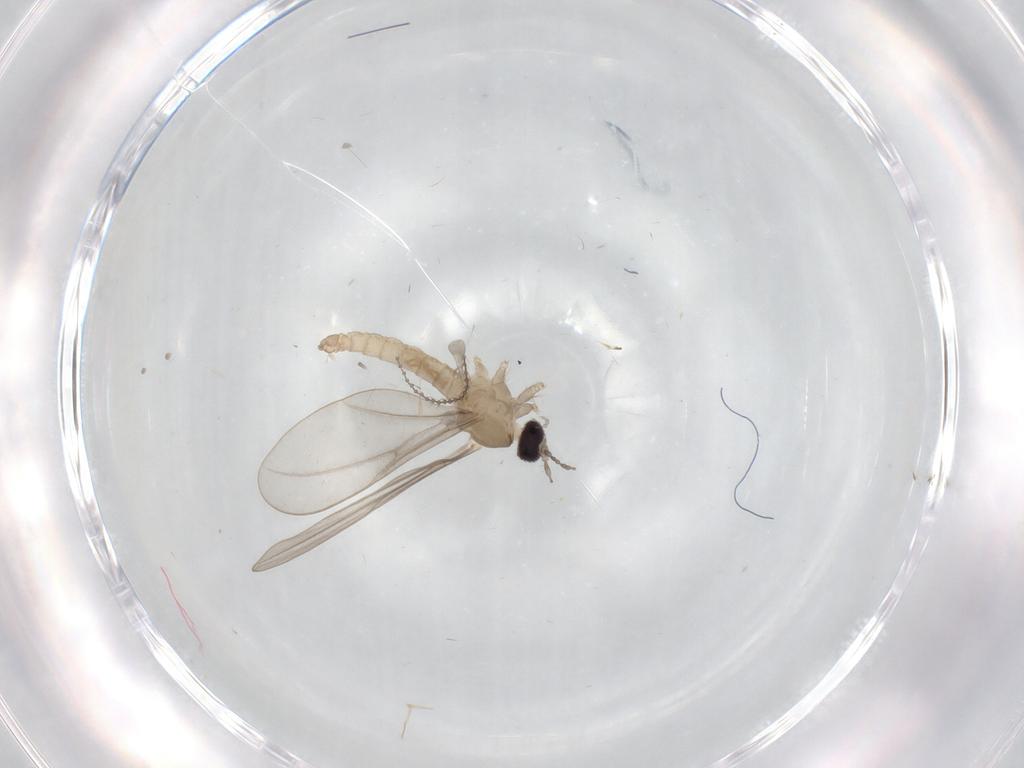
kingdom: Animalia
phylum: Arthropoda
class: Insecta
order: Diptera
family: Cecidomyiidae
